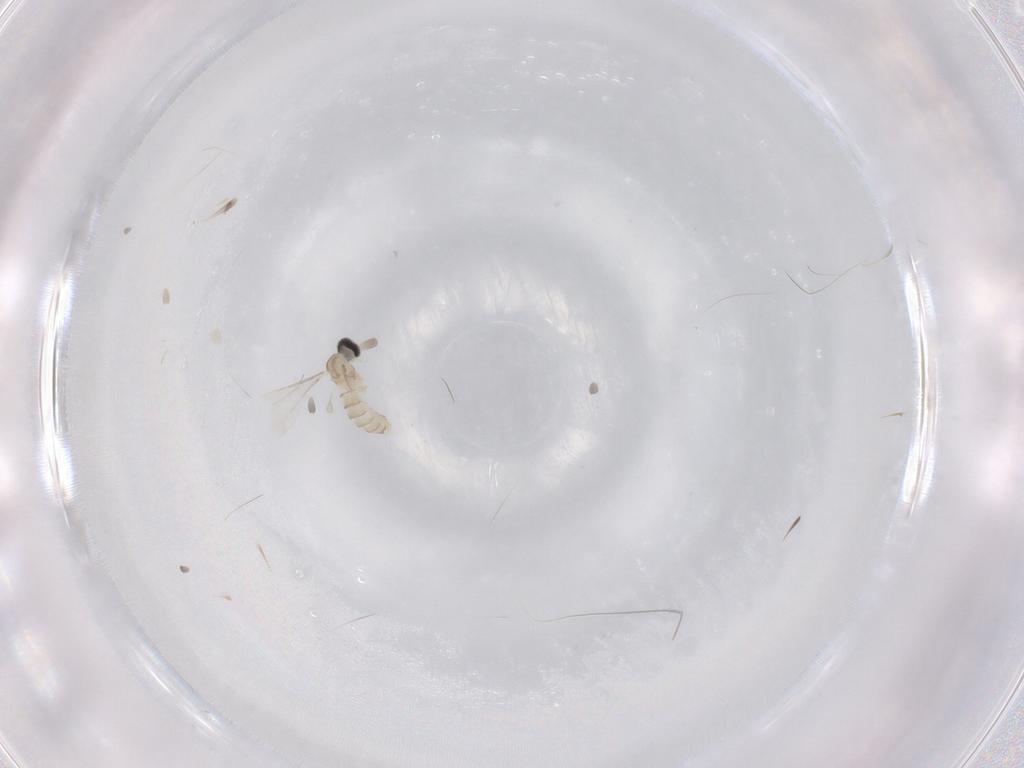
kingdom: Animalia
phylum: Arthropoda
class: Insecta
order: Diptera
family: Cecidomyiidae
